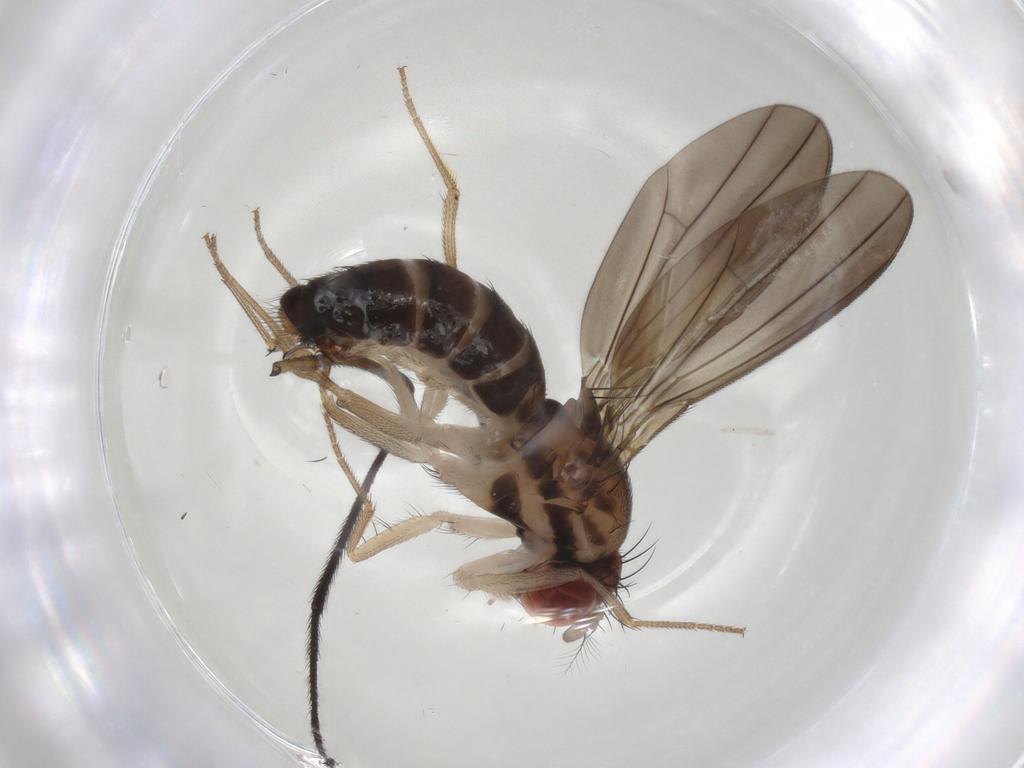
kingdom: Animalia
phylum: Arthropoda
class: Insecta
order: Diptera
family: Drosophilidae
